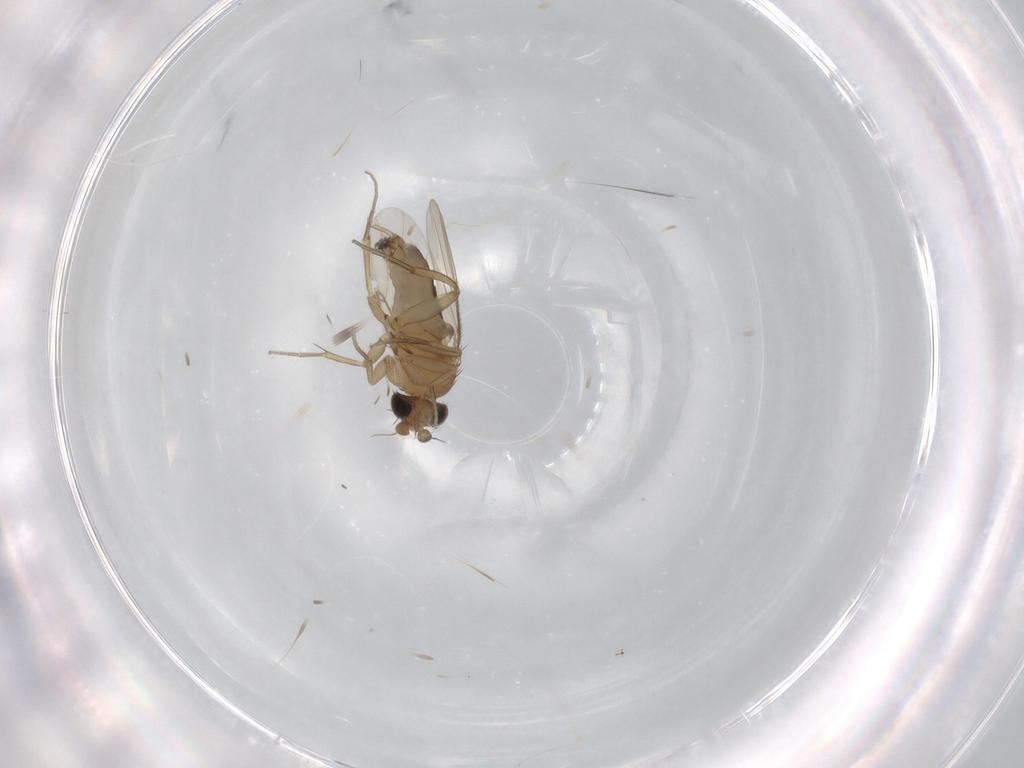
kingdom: Animalia
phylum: Arthropoda
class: Insecta
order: Diptera
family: Phoridae
